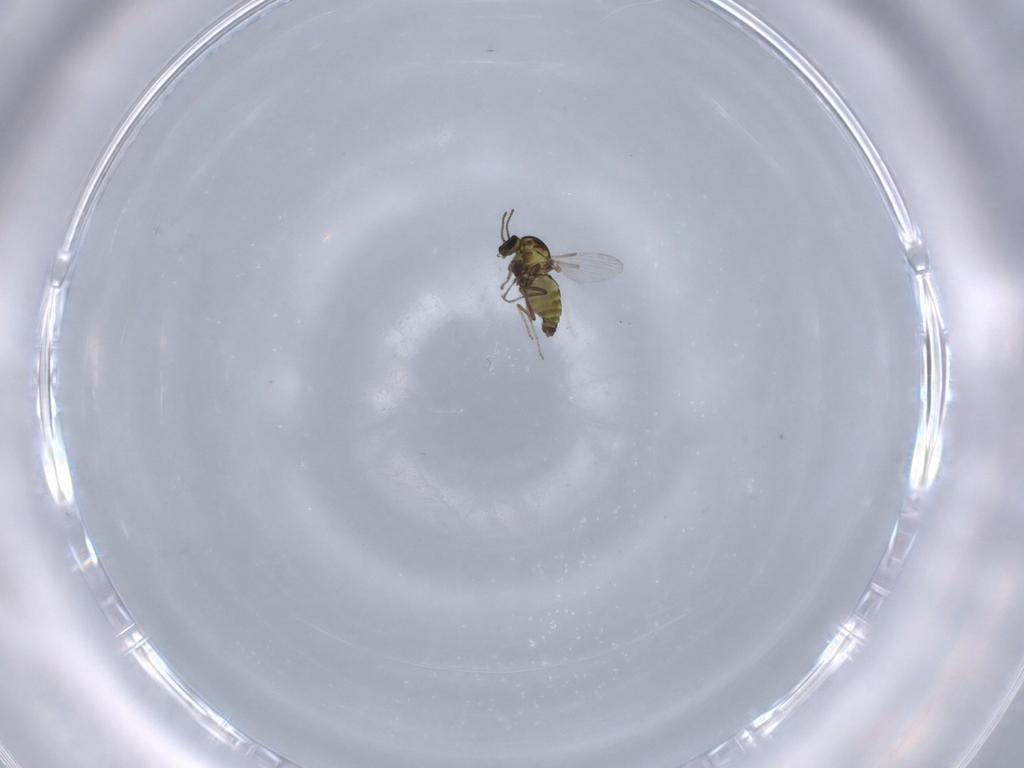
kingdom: Animalia
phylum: Arthropoda
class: Insecta
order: Diptera
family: Ceratopogonidae
